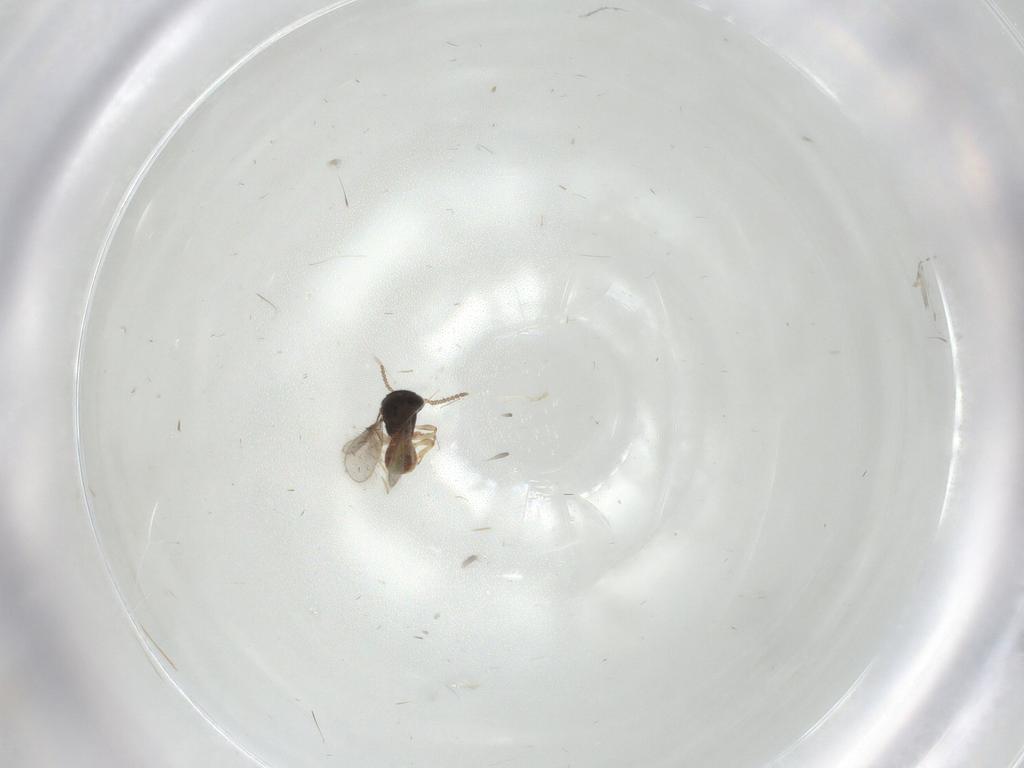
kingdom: Animalia
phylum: Arthropoda
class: Insecta
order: Hymenoptera
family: Scelionidae
